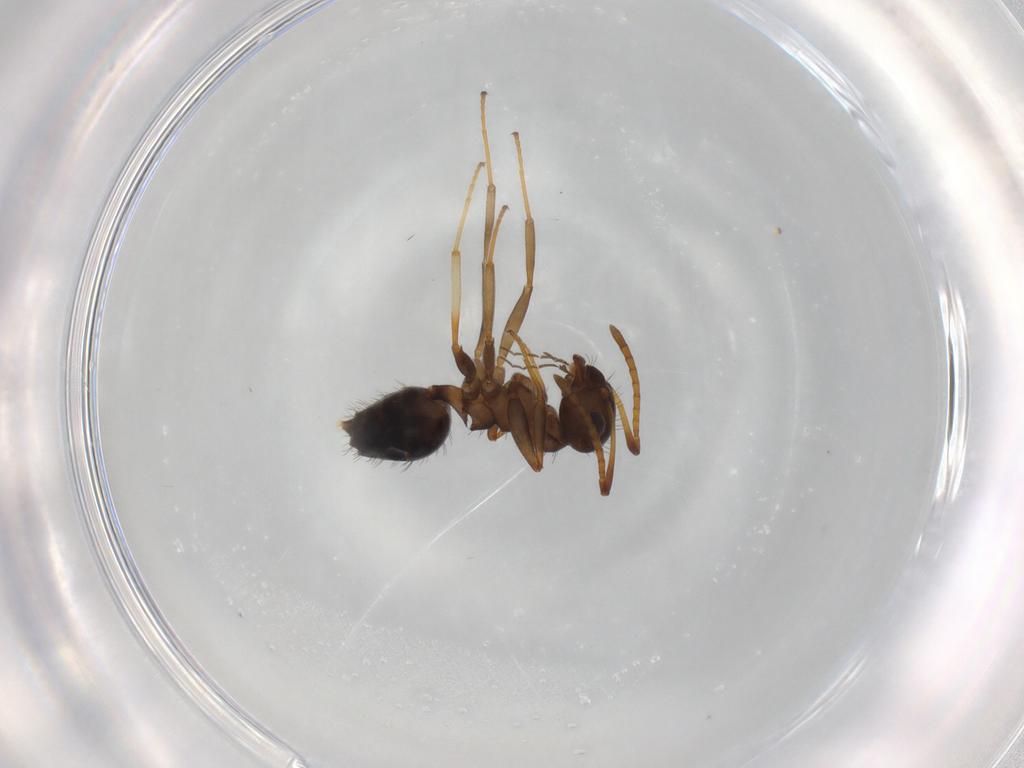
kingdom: Animalia
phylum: Arthropoda
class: Insecta
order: Hymenoptera
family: Formicidae
